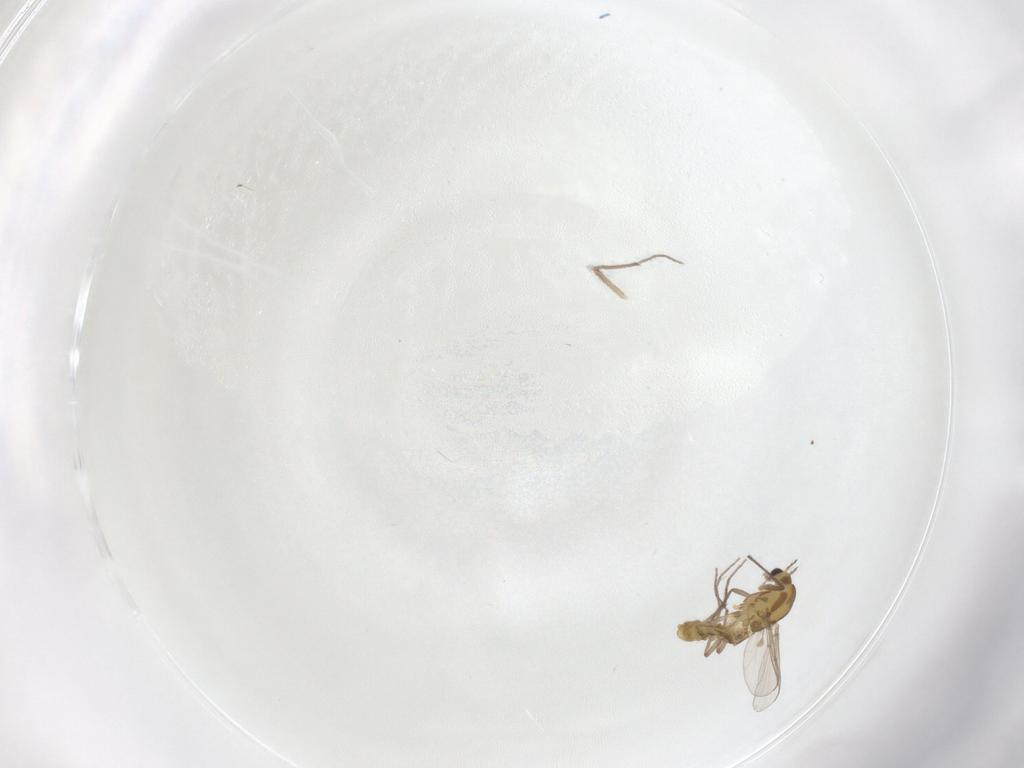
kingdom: Animalia
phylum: Arthropoda
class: Insecta
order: Diptera
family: Chironomidae
